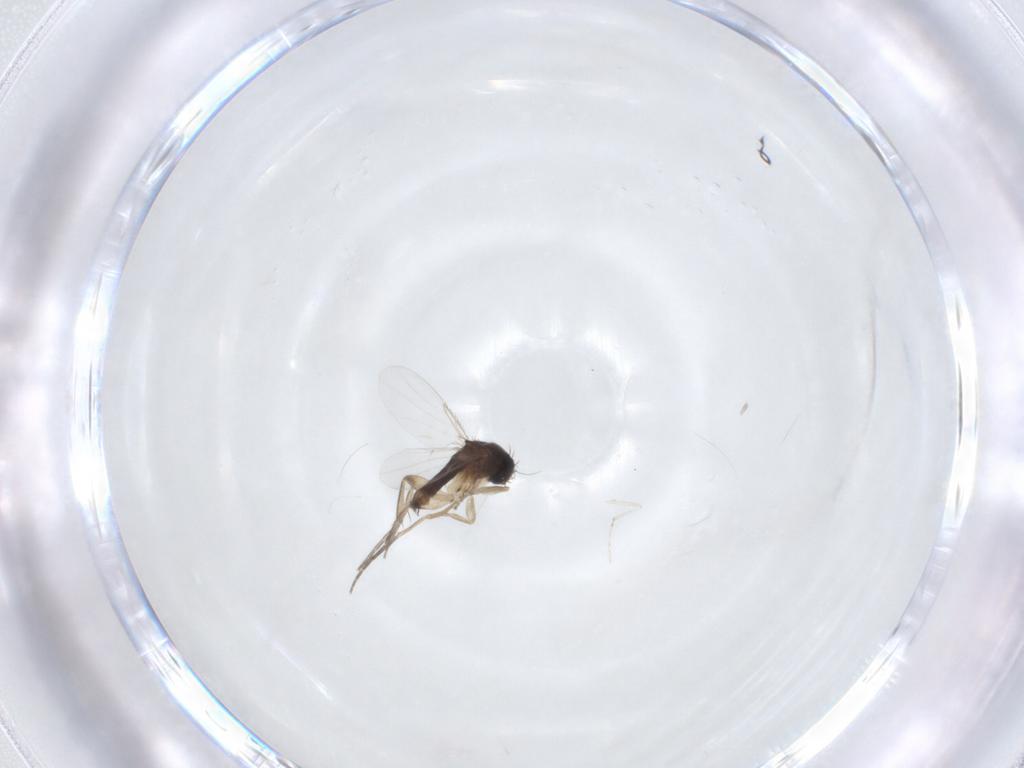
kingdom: Animalia
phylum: Arthropoda
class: Insecta
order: Diptera
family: Phoridae
